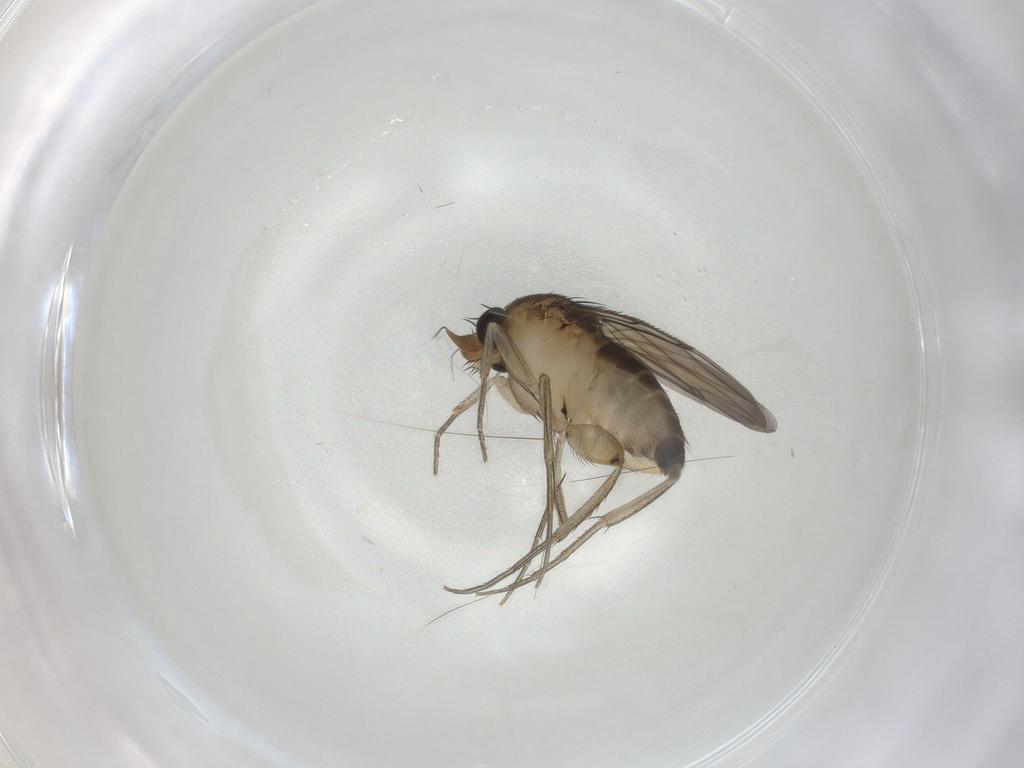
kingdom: Animalia
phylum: Arthropoda
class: Insecta
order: Diptera
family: Phoridae
